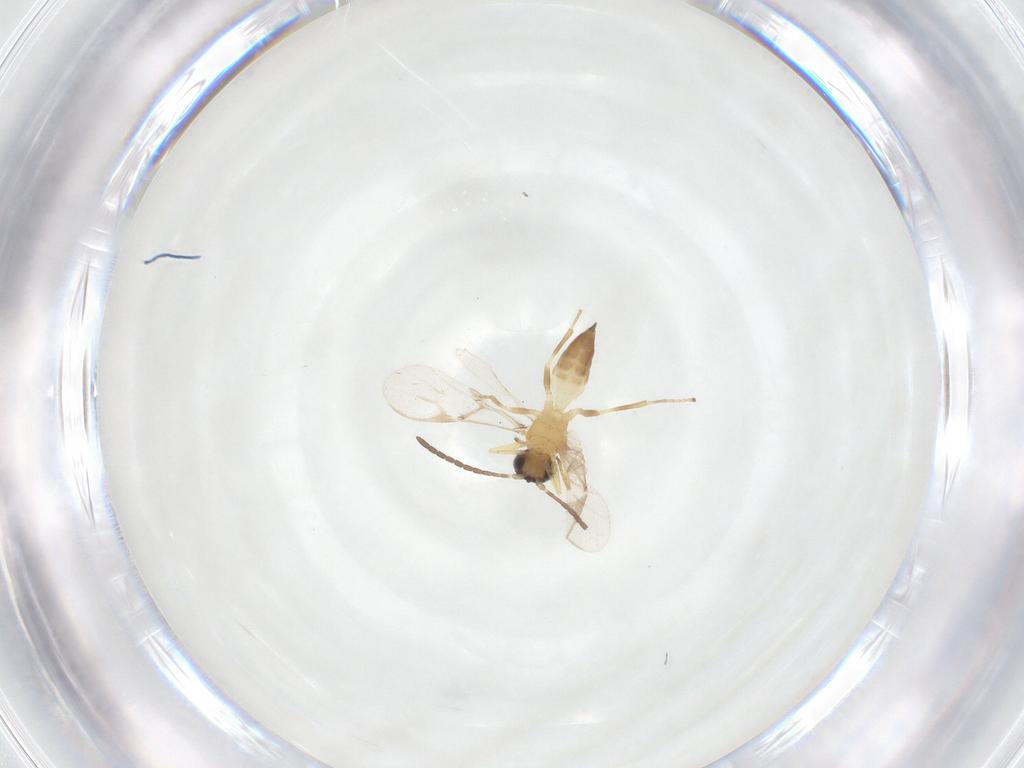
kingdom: Animalia
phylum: Arthropoda
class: Insecta
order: Hymenoptera
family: Braconidae
